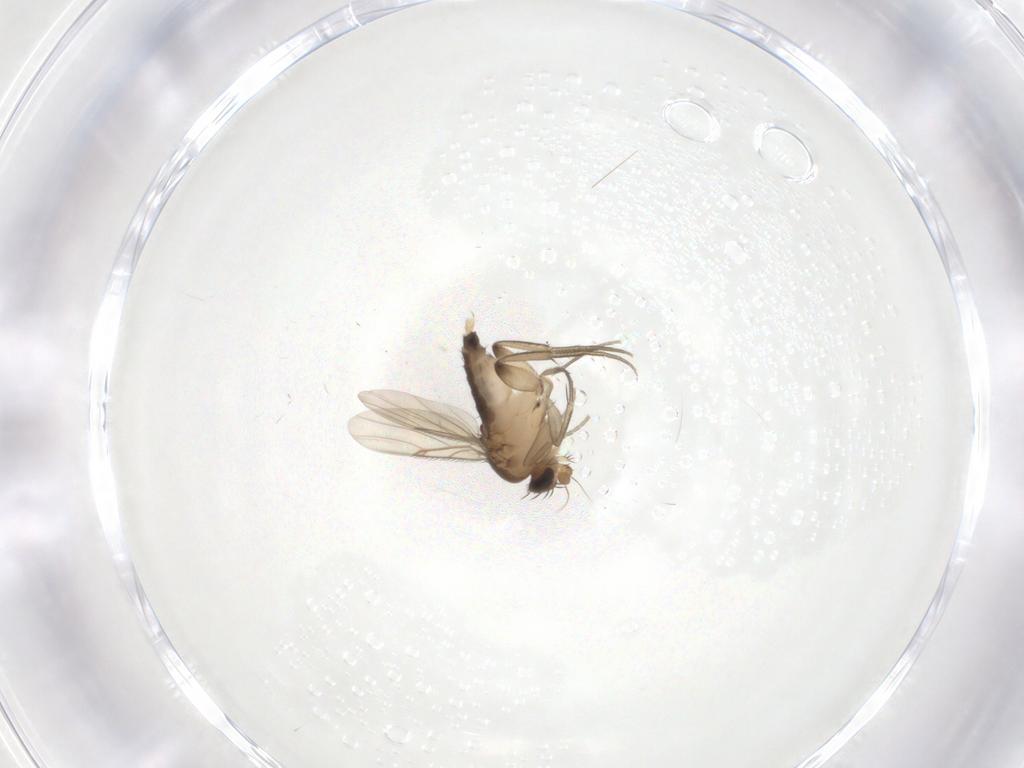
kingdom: Animalia
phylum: Arthropoda
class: Insecta
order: Diptera
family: Phoridae
